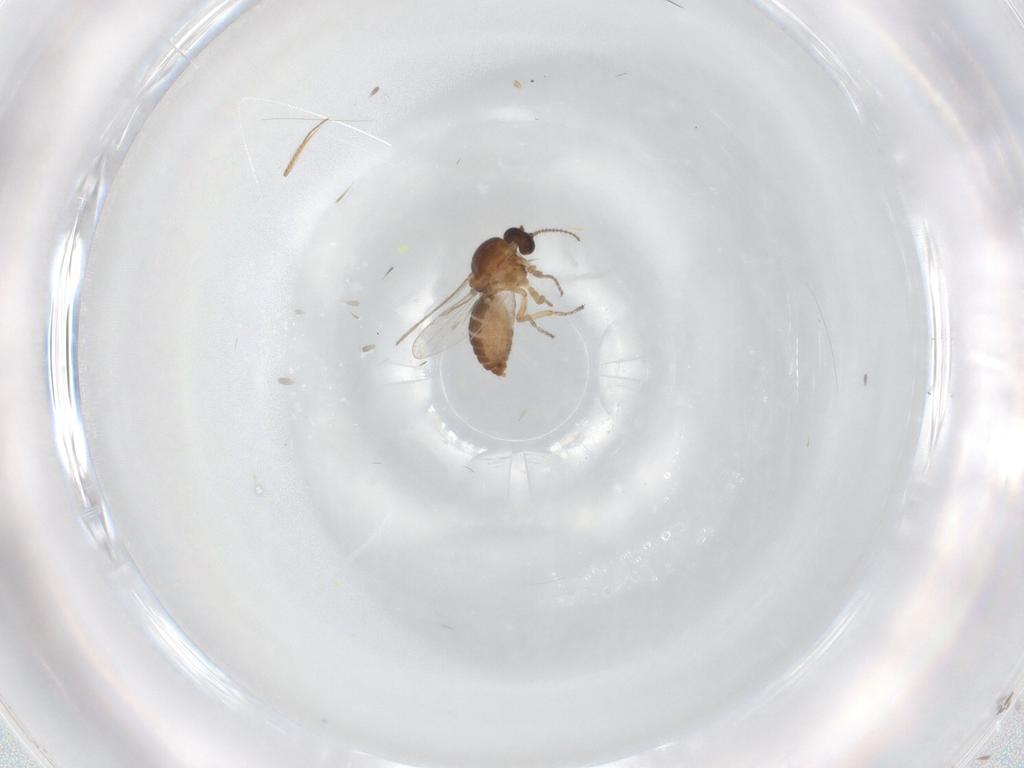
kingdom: Animalia
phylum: Arthropoda
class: Insecta
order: Diptera
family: Ceratopogonidae
